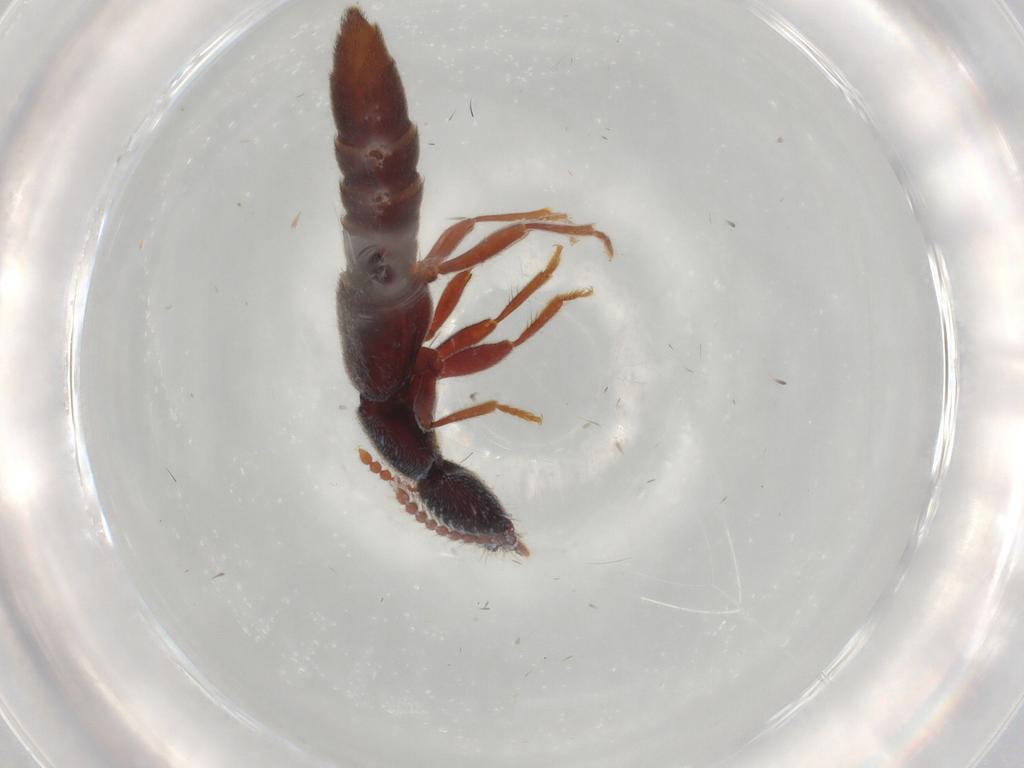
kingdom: Animalia
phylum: Arthropoda
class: Insecta
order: Coleoptera
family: Staphylinidae
